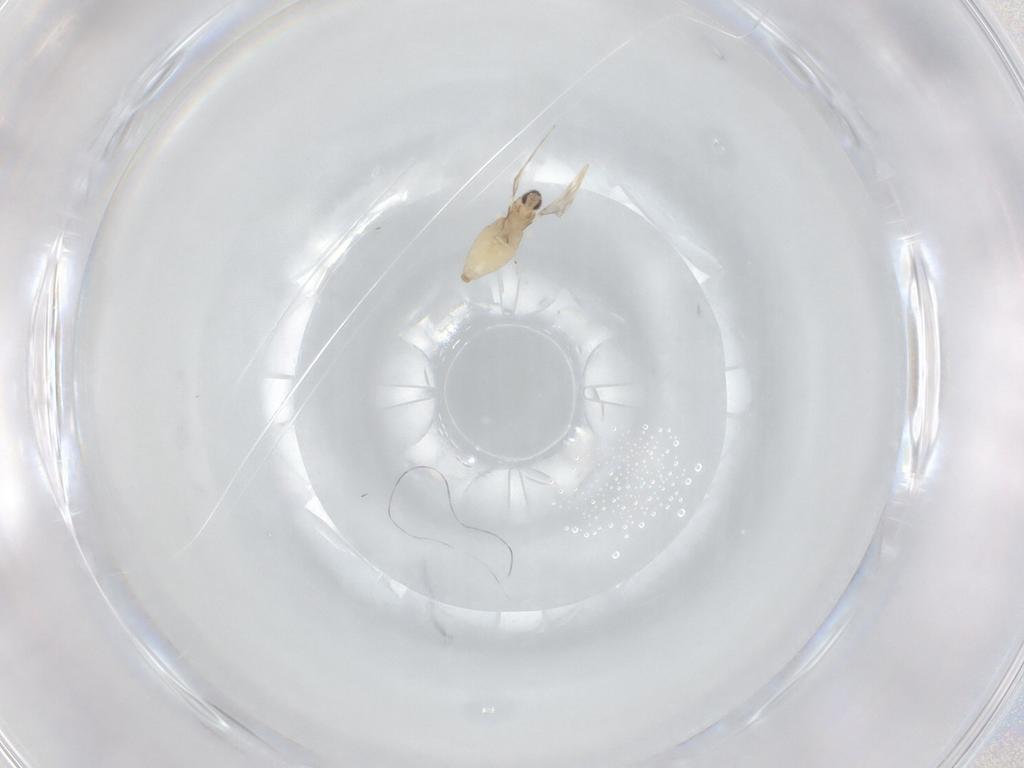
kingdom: Animalia
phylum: Arthropoda
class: Insecta
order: Diptera
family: Cecidomyiidae
